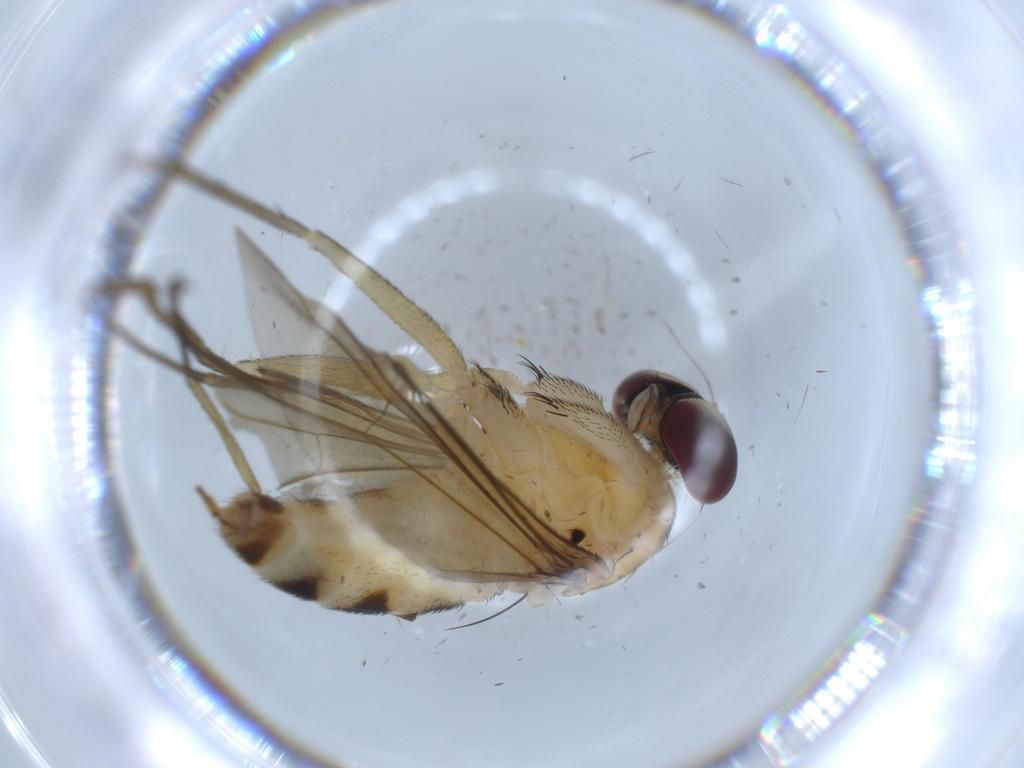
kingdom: Animalia
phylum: Arthropoda
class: Insecta
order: Diptera
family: Dolichopodidae
